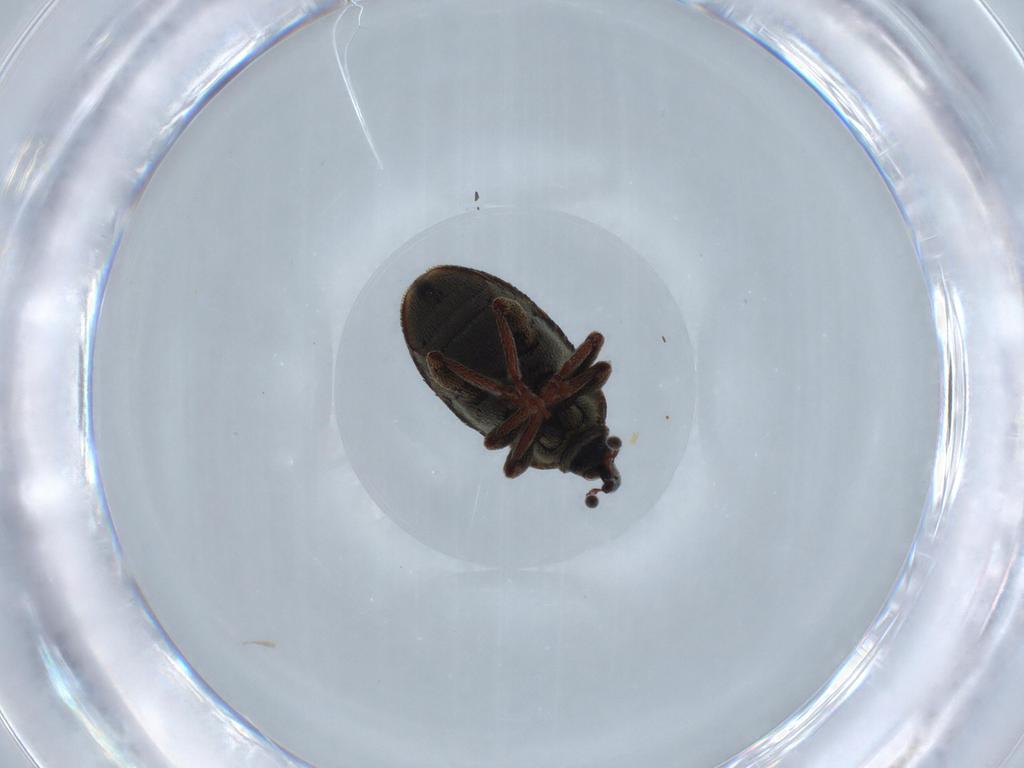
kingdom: Animalia
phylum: Arthropoda
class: Insecta
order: Coleoptera
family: Curculionidae
